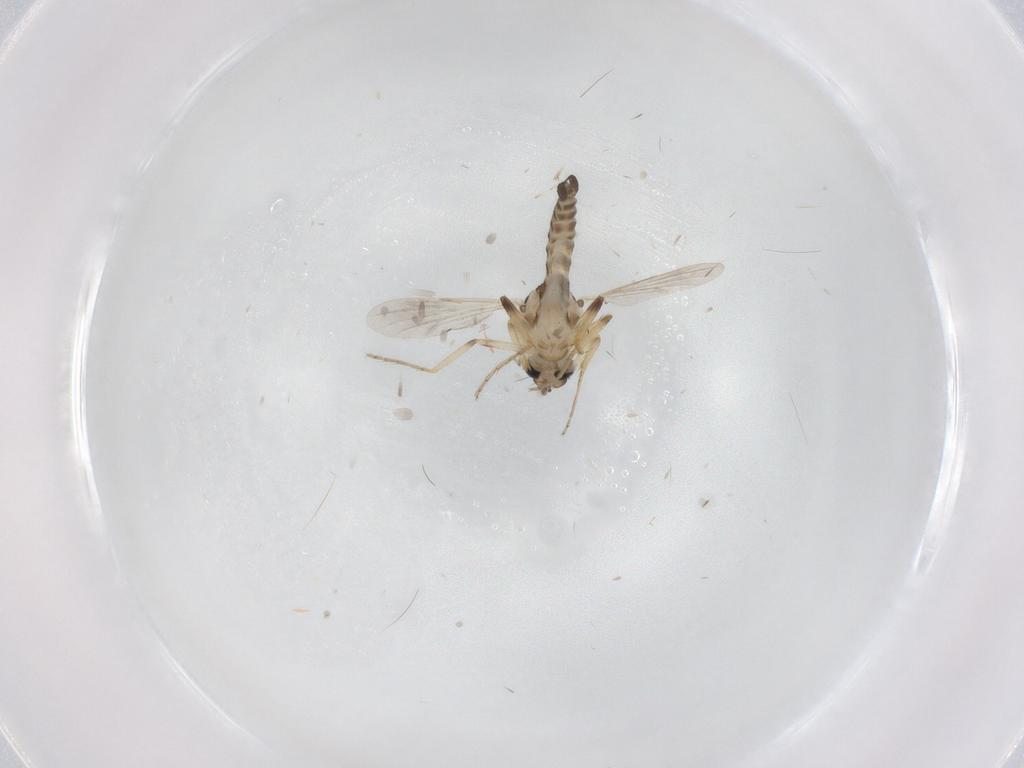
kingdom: Animalia
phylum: Arthropoda
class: Insecta
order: Diptera
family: Ceratopogonidae
